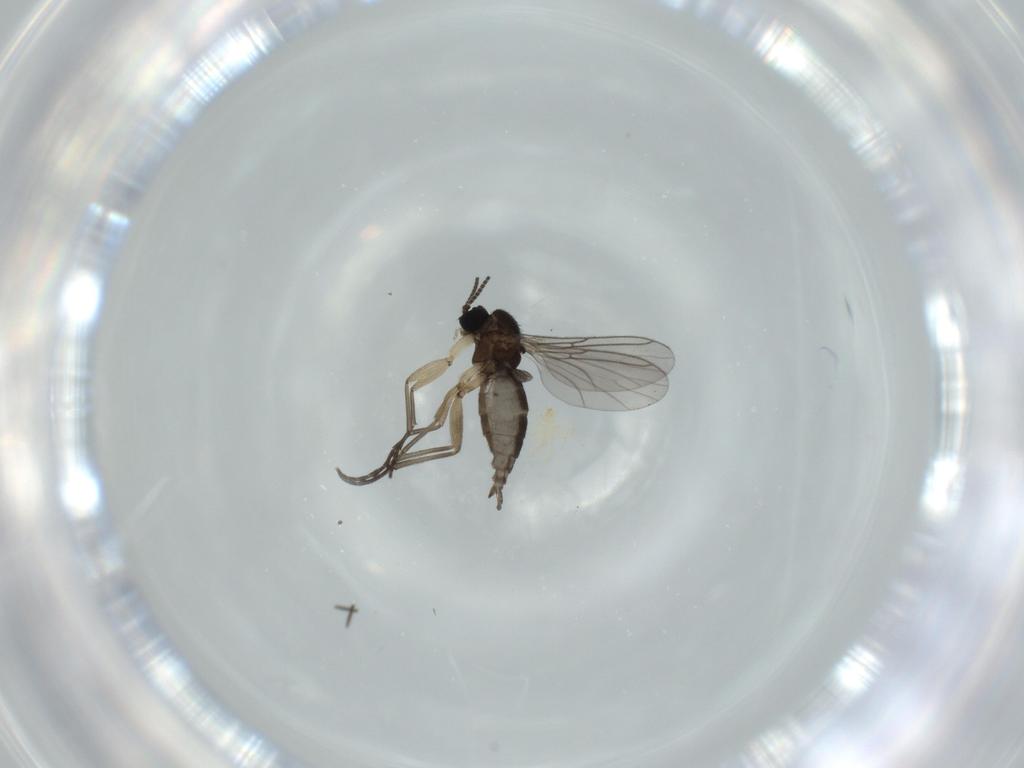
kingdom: Animalia
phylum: Arthropoda
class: Insecta
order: Diptera
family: Sciaridae
